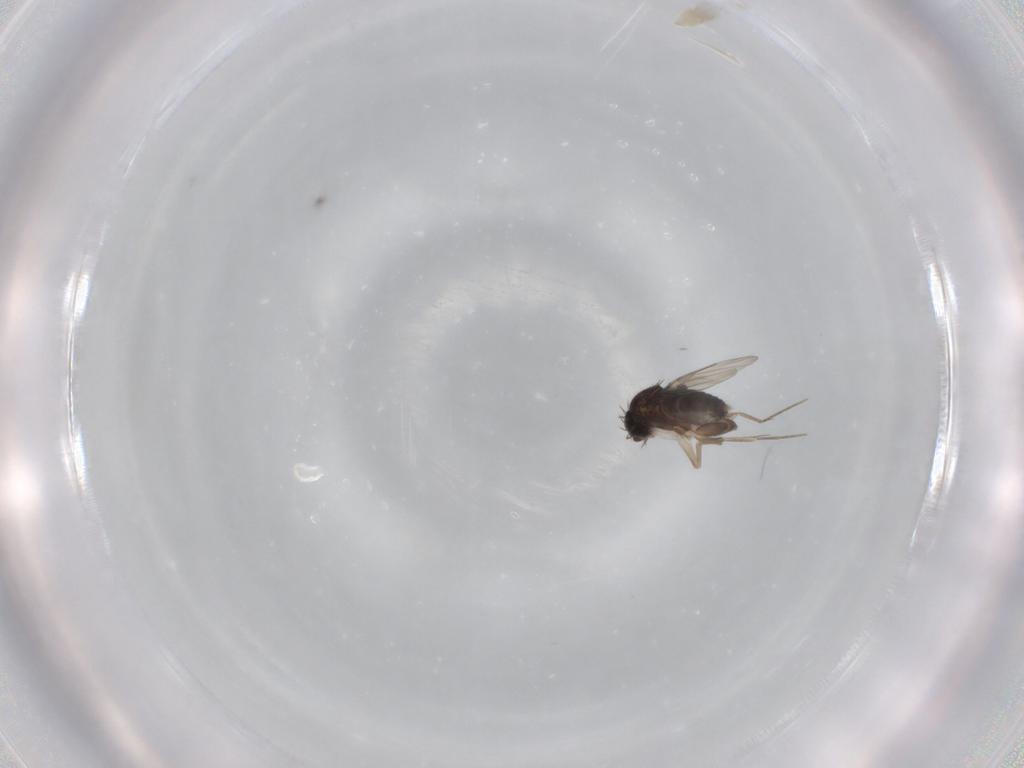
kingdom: Animalia
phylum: Arthropoda
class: Insecta
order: Diptera
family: Phoridae
